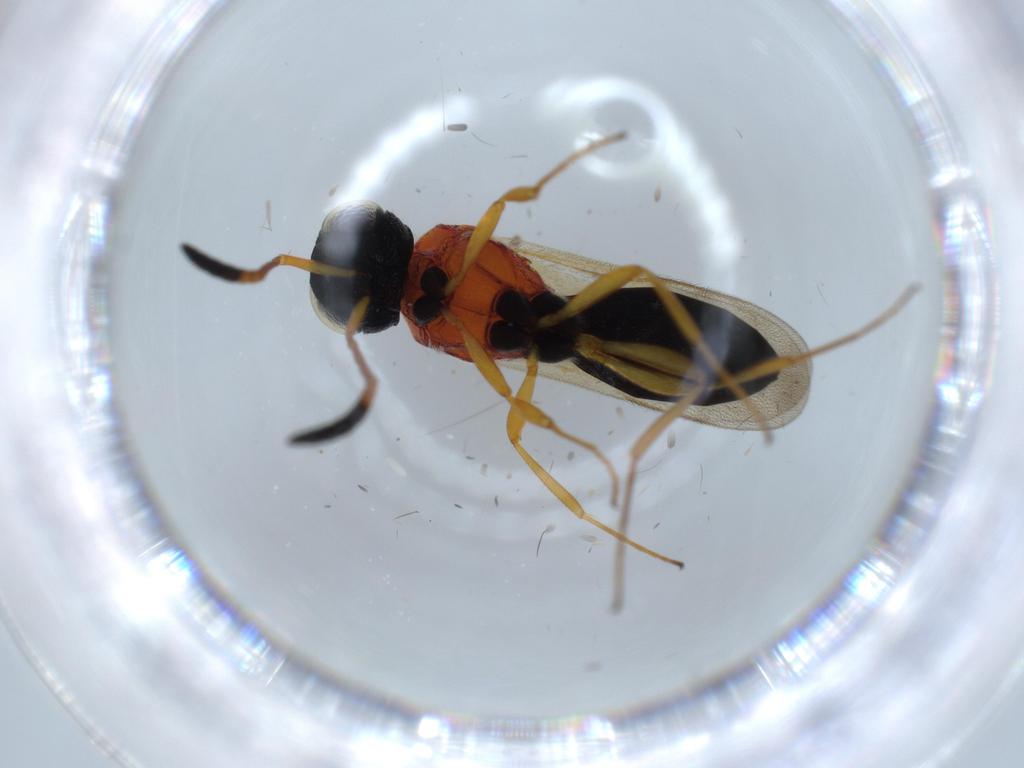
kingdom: Animalia
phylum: Arthropoda
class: Insecta
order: Hymenoptera
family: Scelionidae
